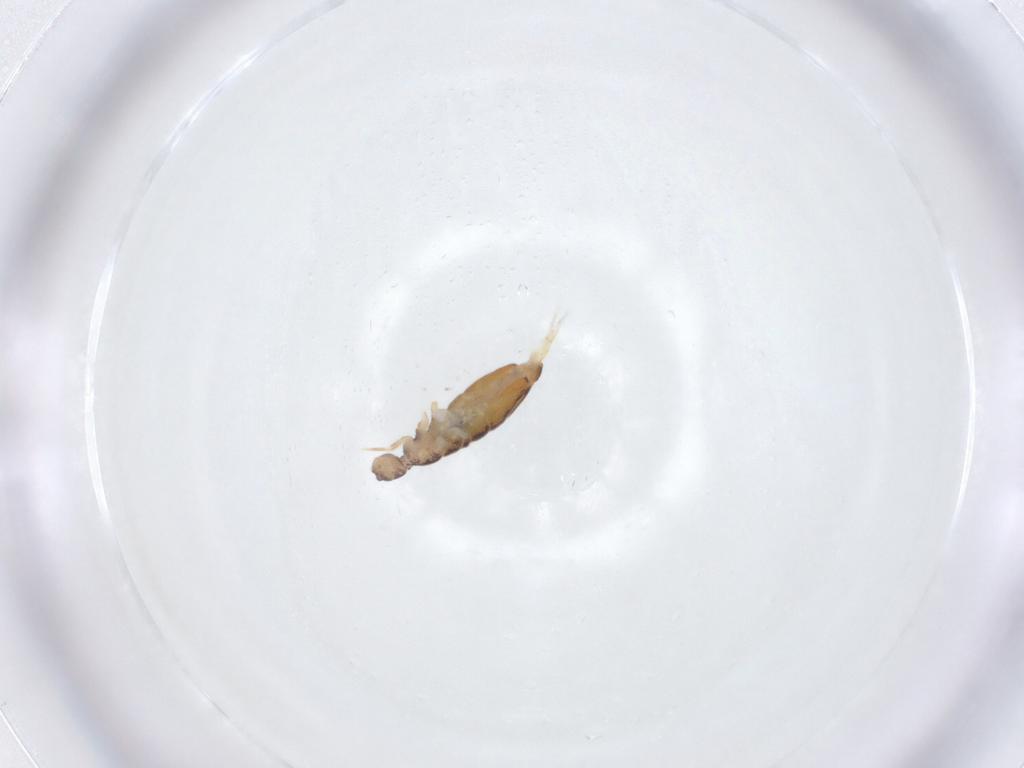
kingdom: Animalia
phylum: Arthropoda
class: Collembola
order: Entomobryomorpha
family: Entomobryidae
